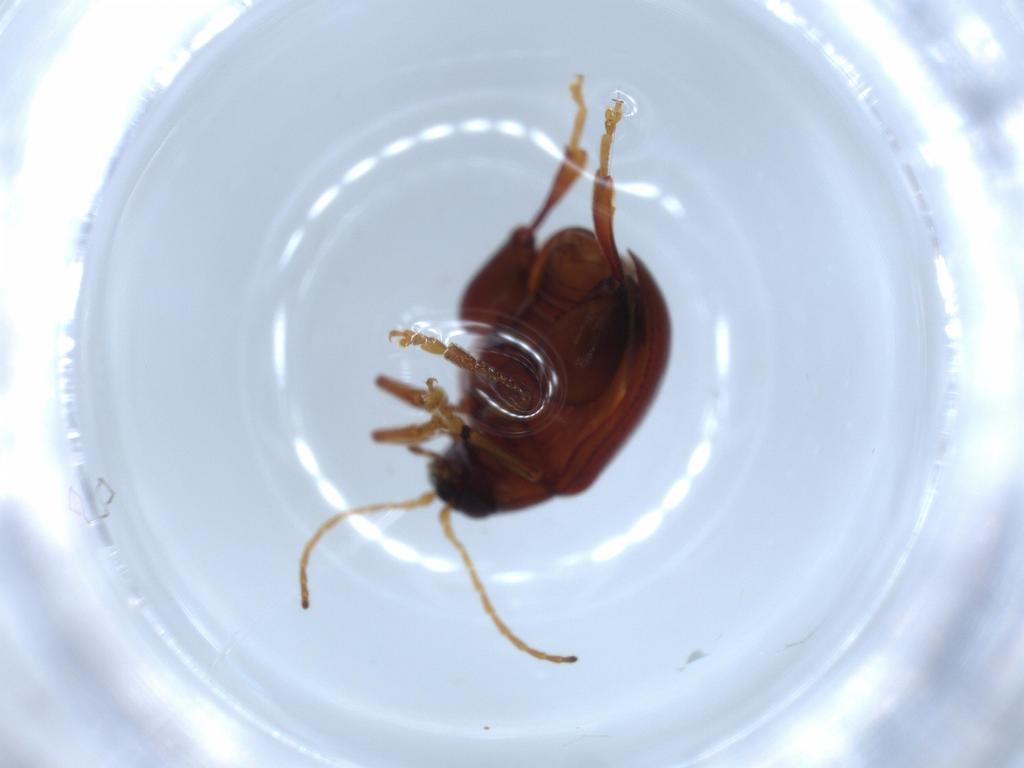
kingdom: Animalia
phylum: Arthropoda
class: Insecta
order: Coleoptera
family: Chrysomelidae
